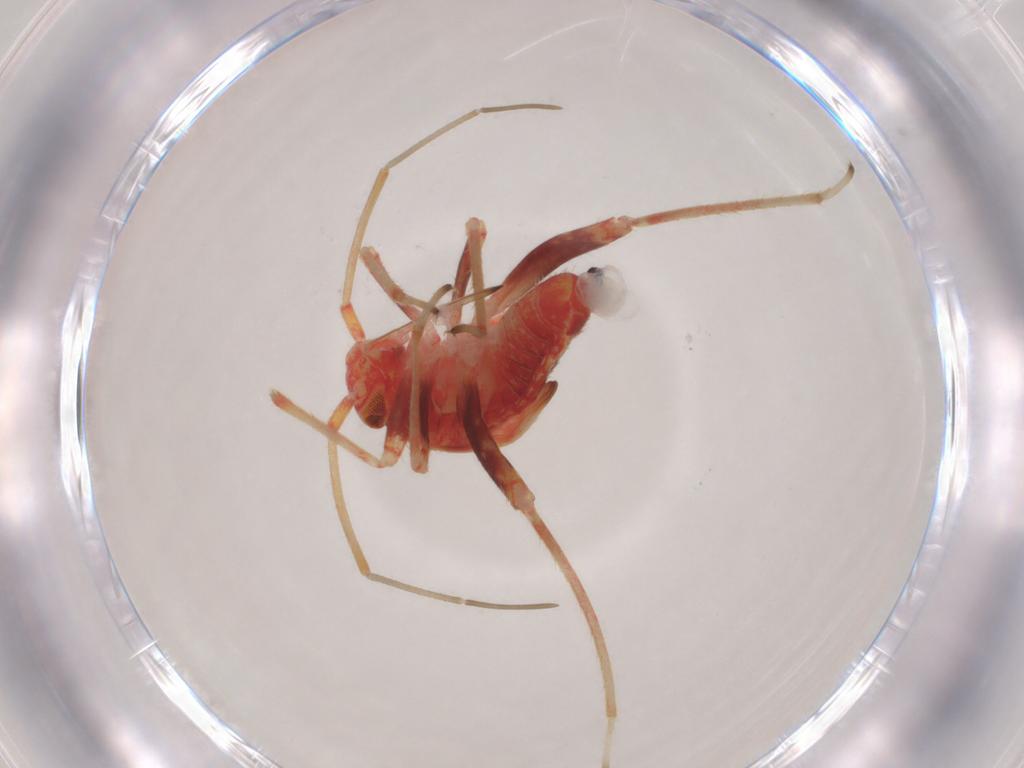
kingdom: Animalia
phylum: Arthropoda
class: Insecta
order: Hemiptera
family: Miridae
